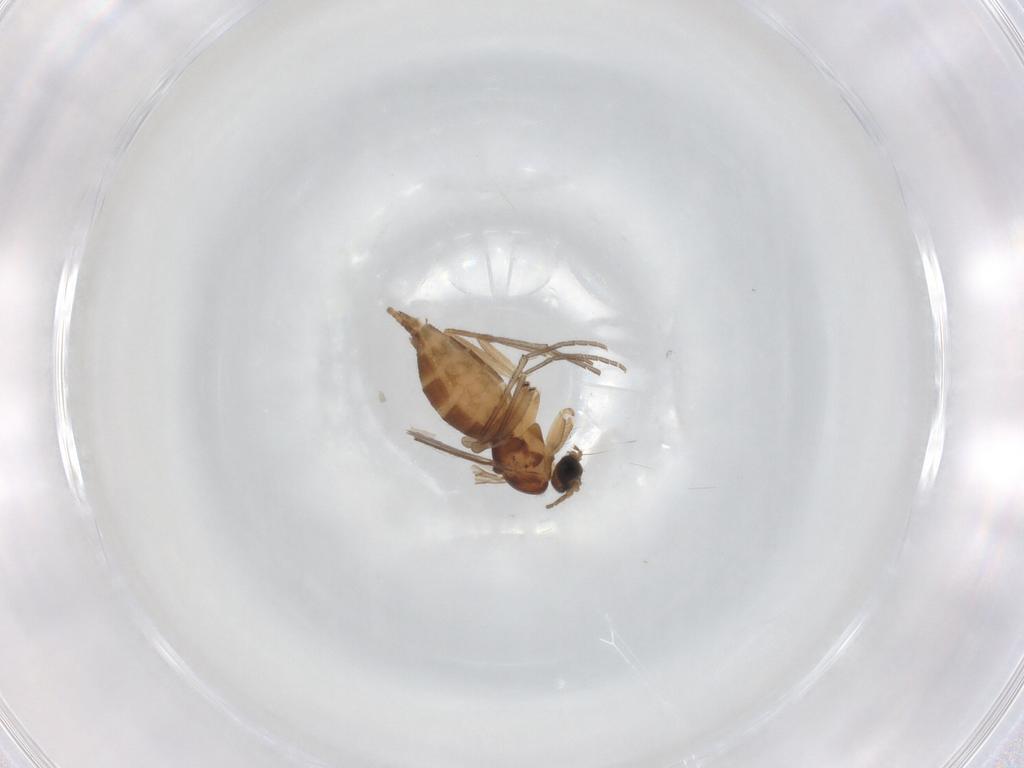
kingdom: Animalia
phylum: Arthropoda
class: Insecta
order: Diptera
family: Sciaridae
